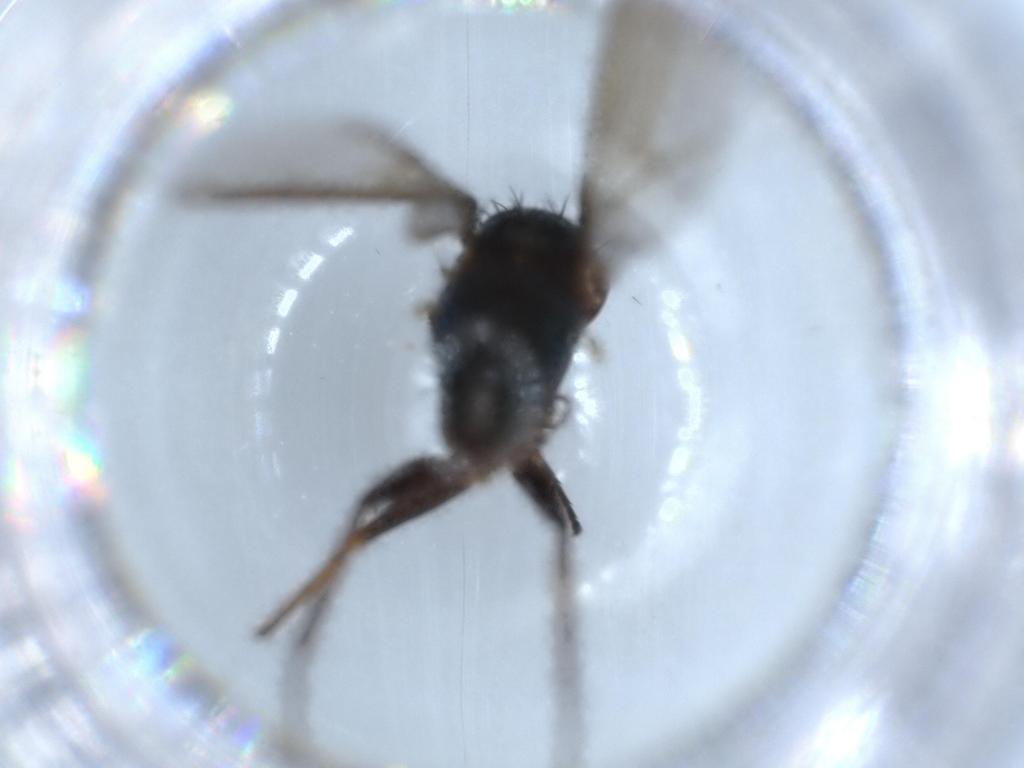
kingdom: Animalia
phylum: Arthropoda
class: Insecta
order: Diptera
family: Dolichopodidae
